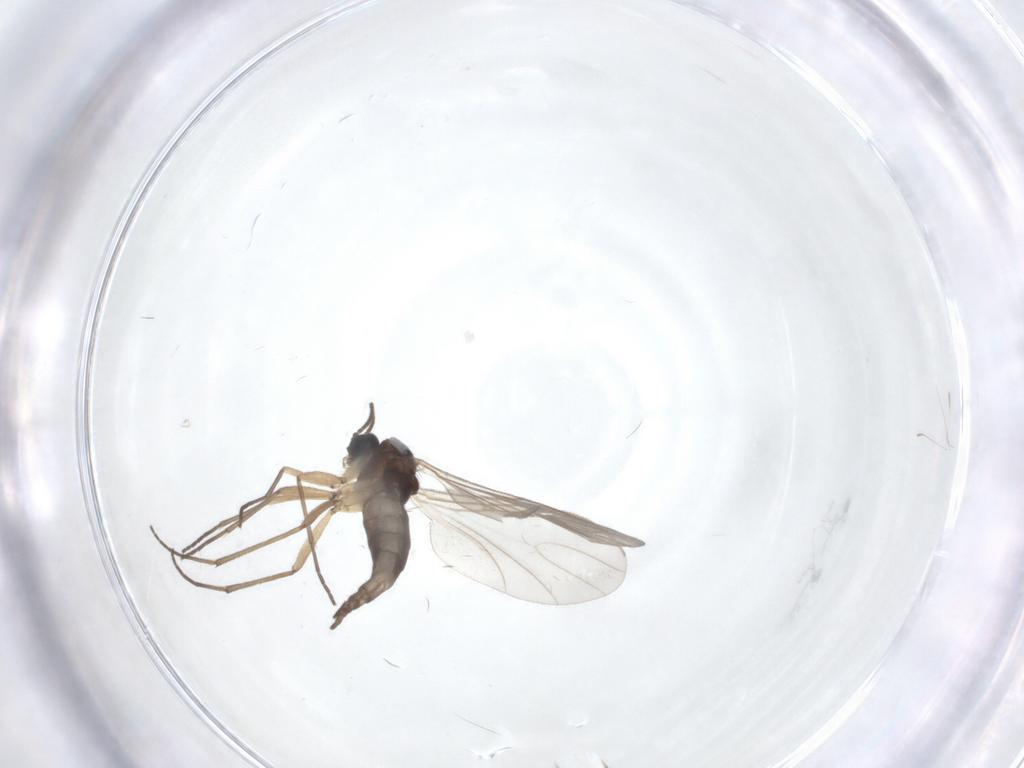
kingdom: Animalia
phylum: Arthropoda
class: Insecta
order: Diptera
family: Sciaridae
